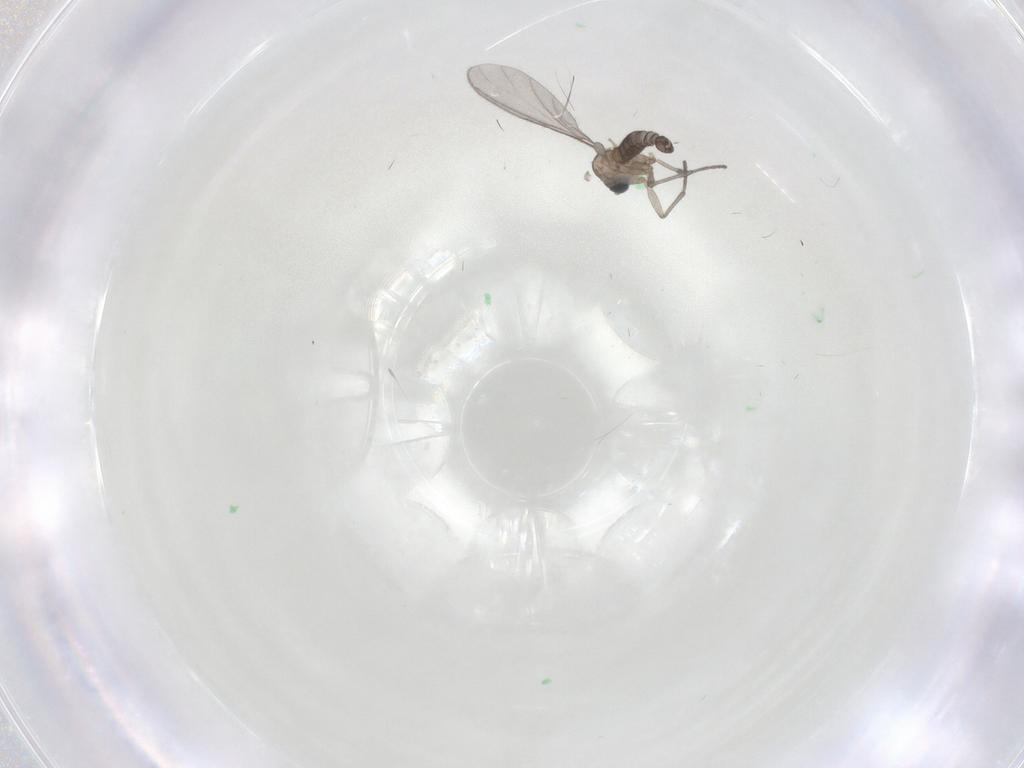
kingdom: Animalia
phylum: Arthropoda
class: Insecta
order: Diptera
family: Sciaridae
